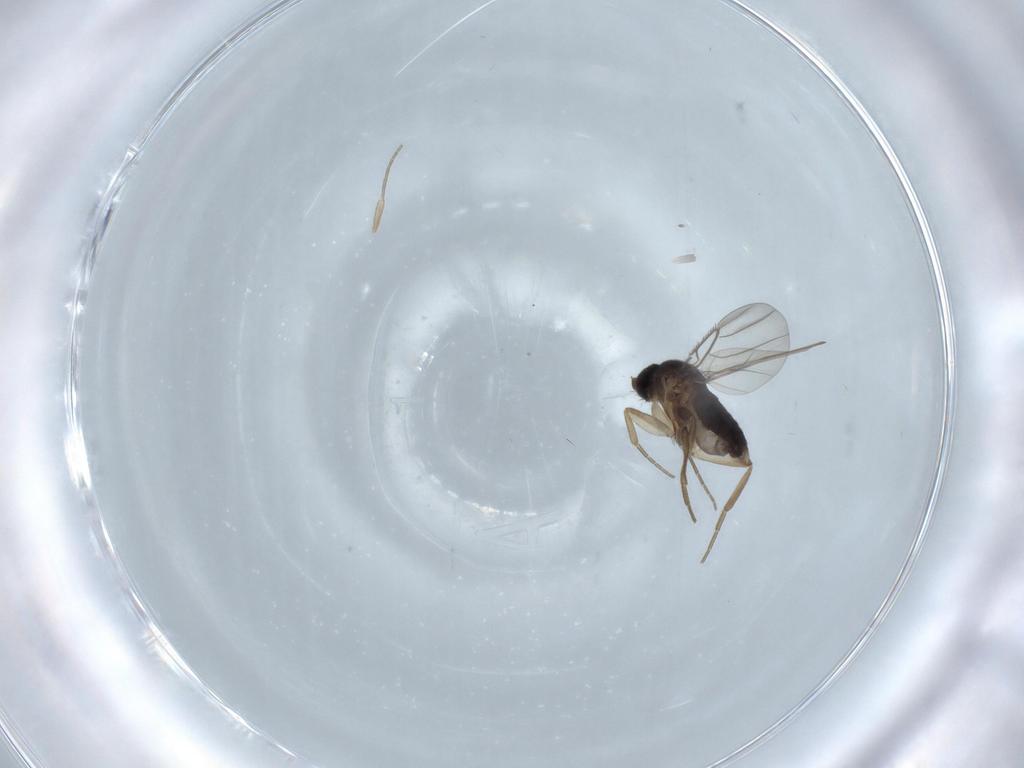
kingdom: Animalia
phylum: Arthropoda
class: Insecta
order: Diptera
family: Phoridae
